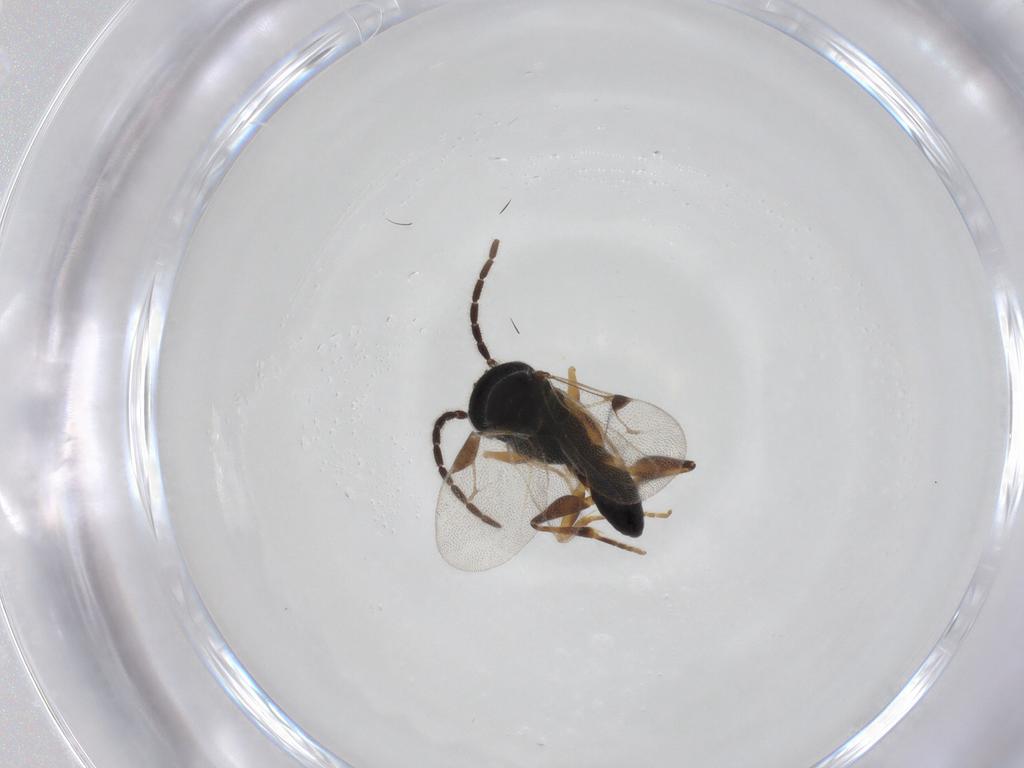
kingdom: Animalia
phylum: Arthropoda
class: Insecta
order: Hymenoptera
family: Dryinidae
